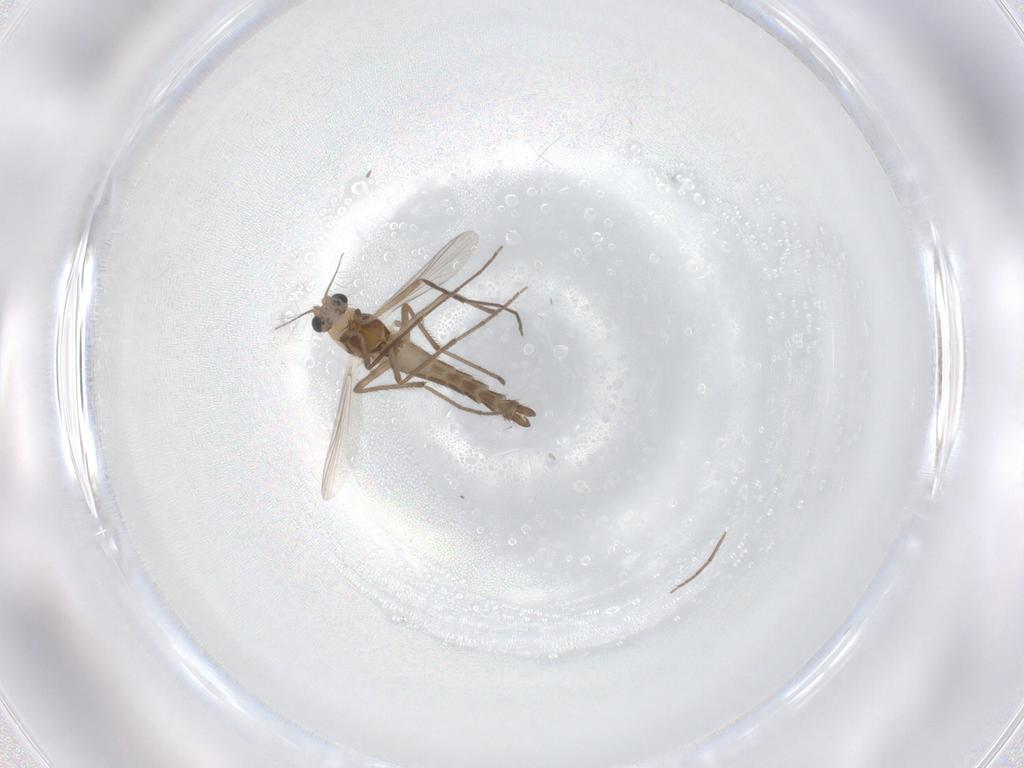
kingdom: Animalia
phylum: Arthropoda
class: Insecta
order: Diptera
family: Chironomidae
